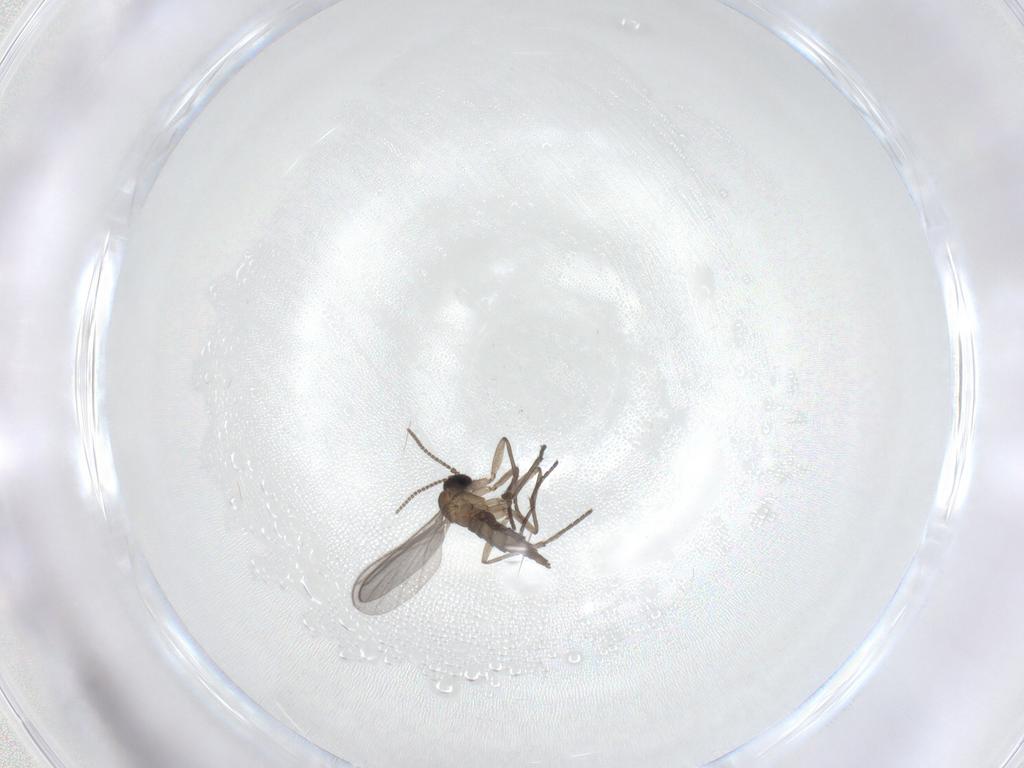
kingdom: Animalia
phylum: Arthropoda
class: Insecta
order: Diptera
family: Sciaridae
